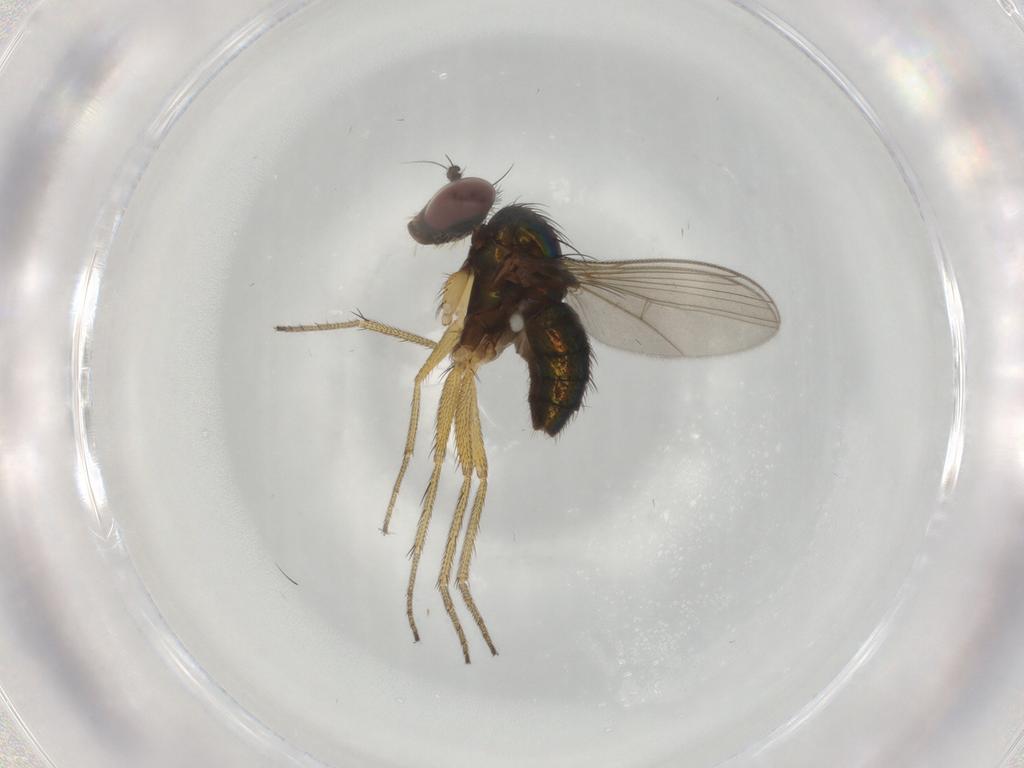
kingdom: Animalia
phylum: Arthropoda
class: Insecta
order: Diptera
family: Dolichopodidae
